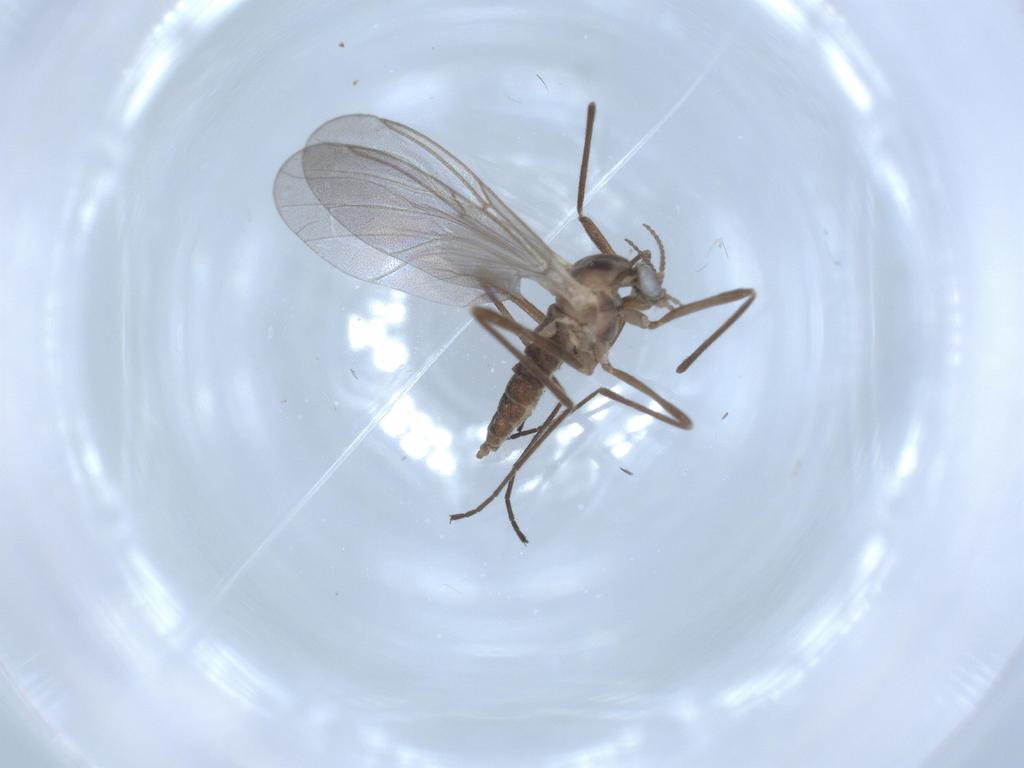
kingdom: Animalia
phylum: Arthropoda
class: Insecta
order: Diptera
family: Cecidomyiidae
